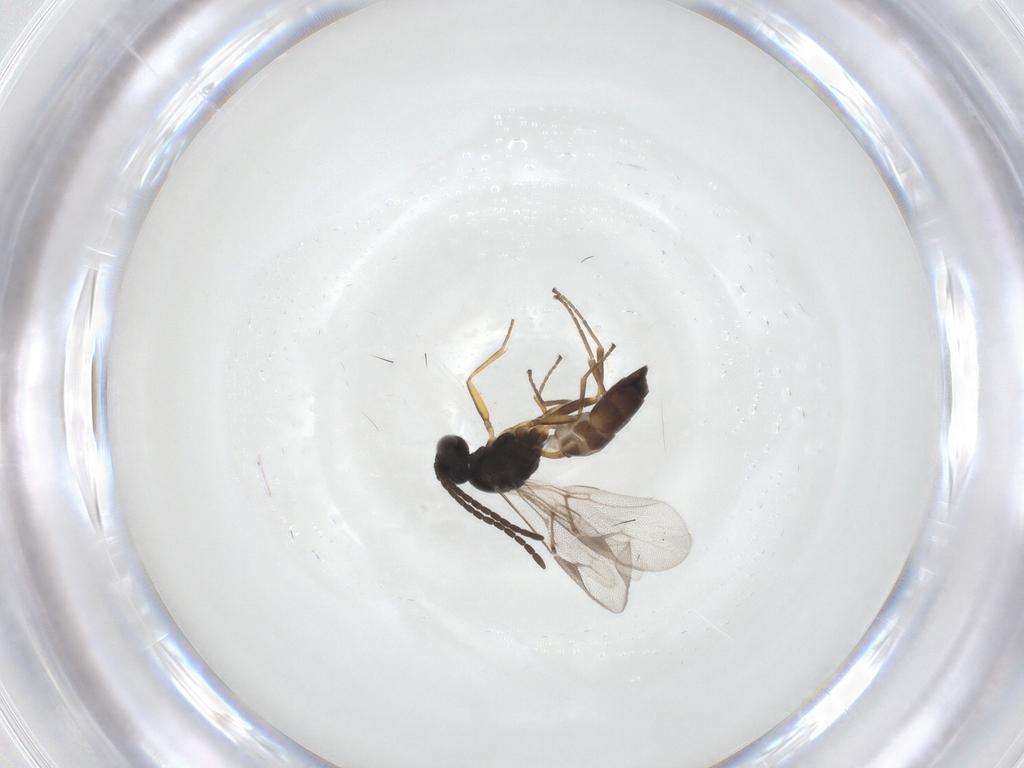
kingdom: Animalia
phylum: Arthropoda
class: Insecta
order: Hymenoptera
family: Braconidae
